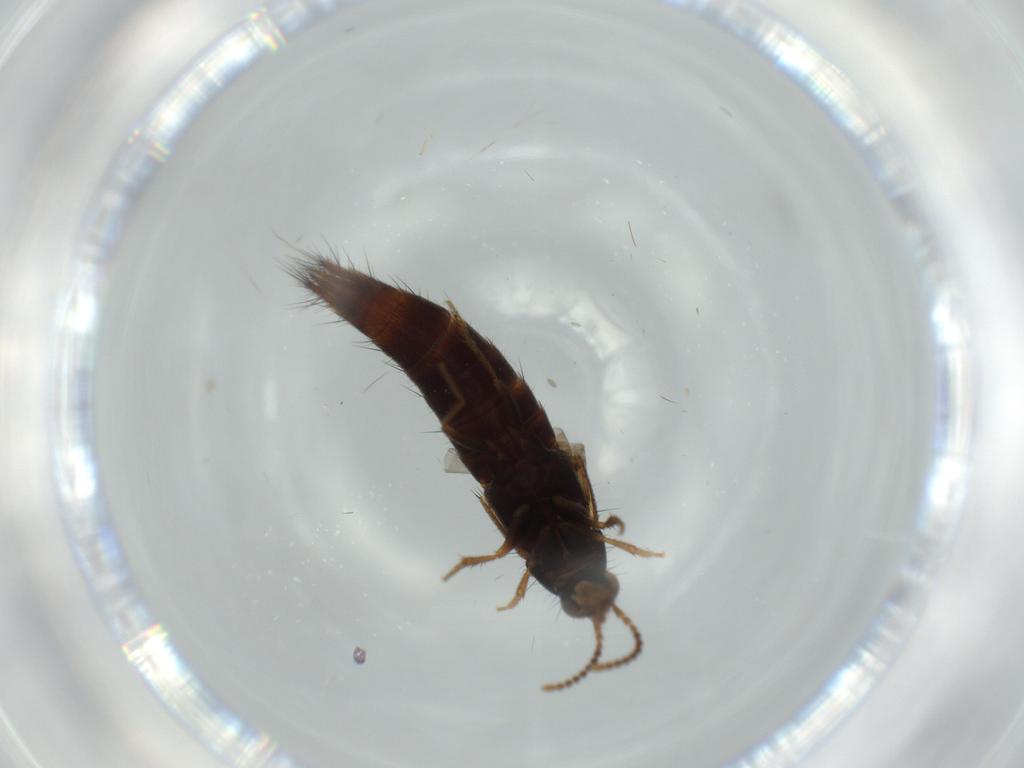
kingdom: Animalia
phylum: Arthropoda
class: Insecta
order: Coleoptera
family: Staphylinidae
